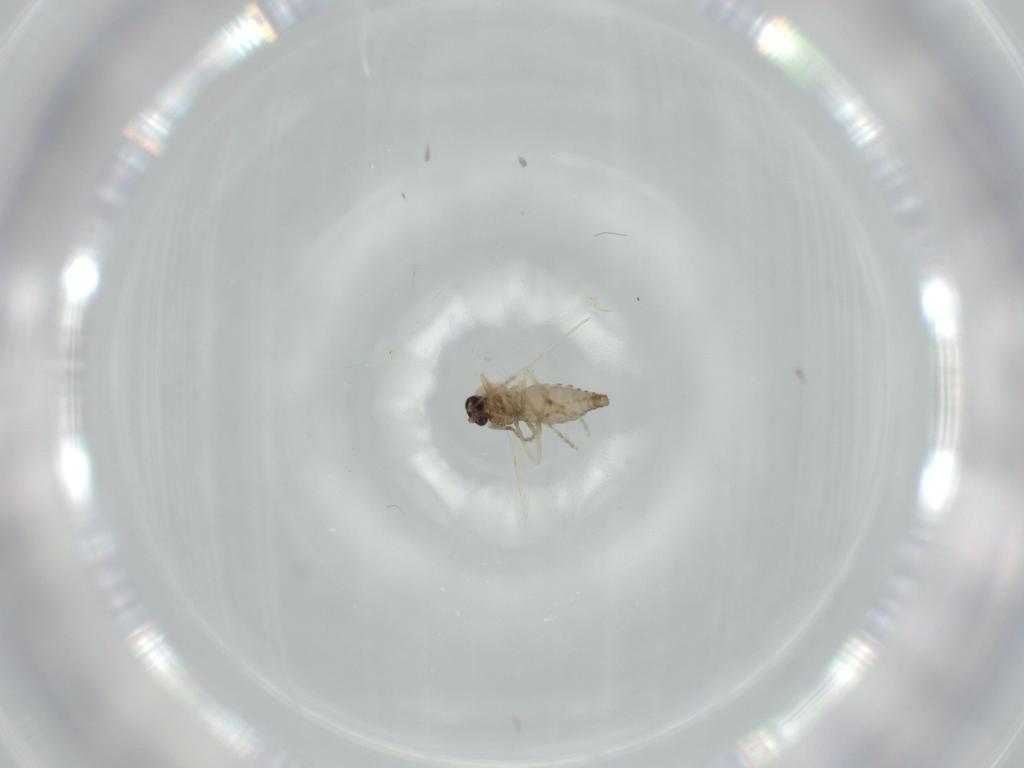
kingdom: Animalia
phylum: Arthropoda
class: Insecta
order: Diptera
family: Ceratopogonidae
